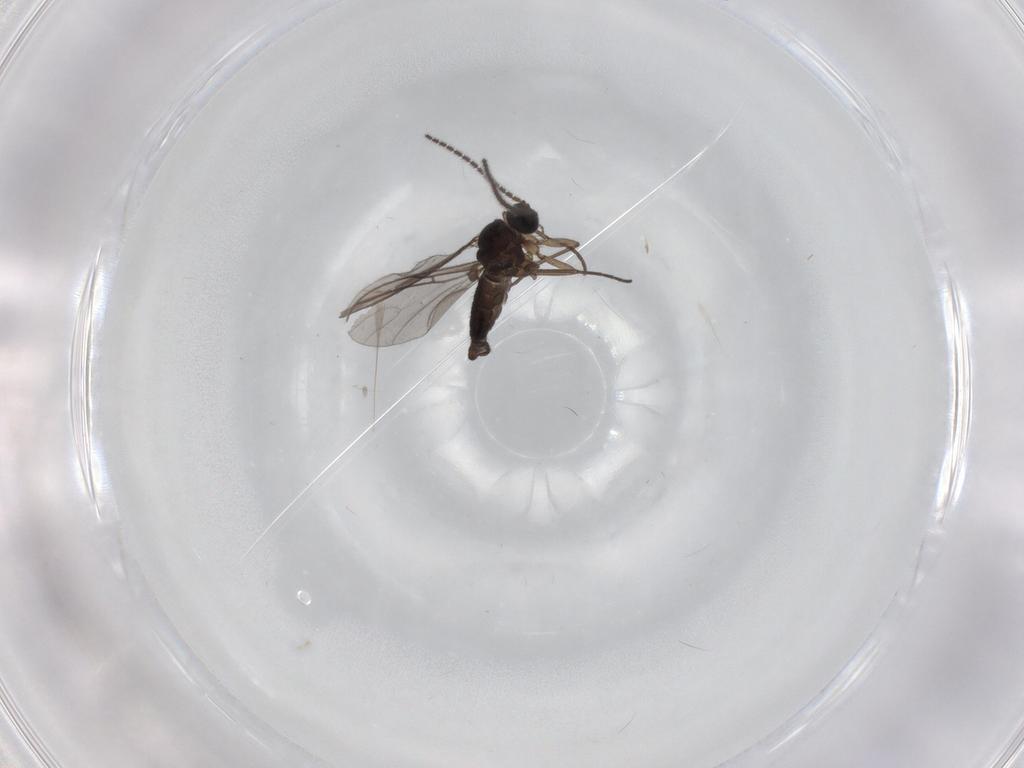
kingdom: Animalia
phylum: Arthropoda
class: Insecta
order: Diptera
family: Sciaridae
